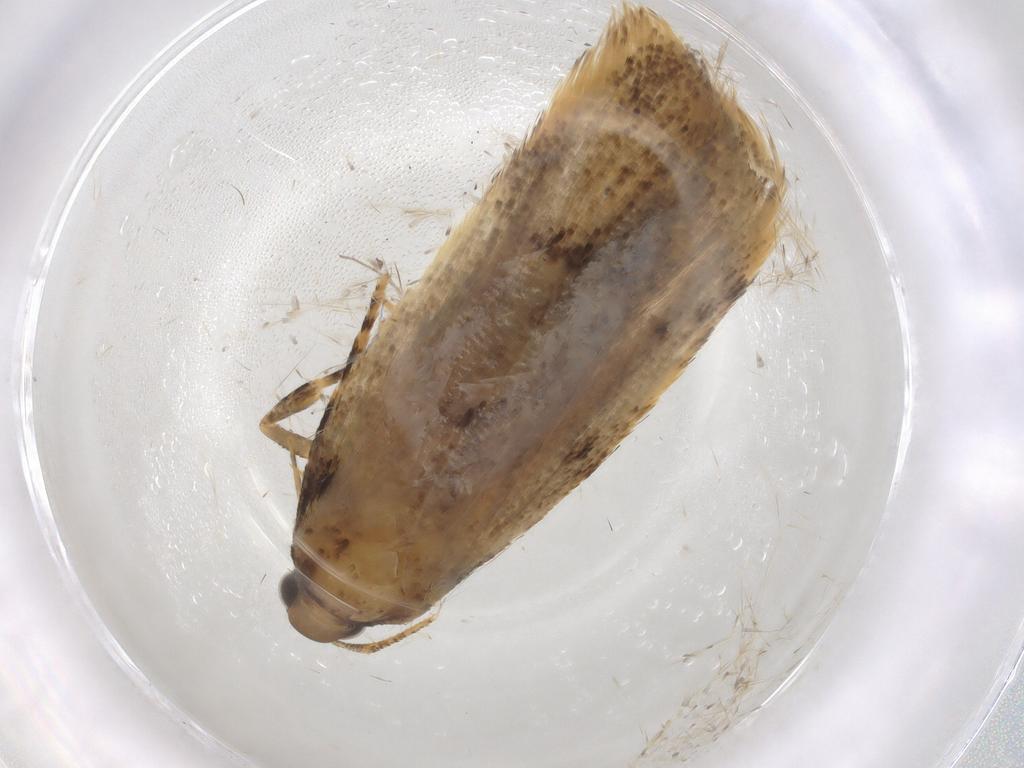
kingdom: Animalia
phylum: Arthropoda
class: Insecta
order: Lepidoptera
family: Gelechiidae
